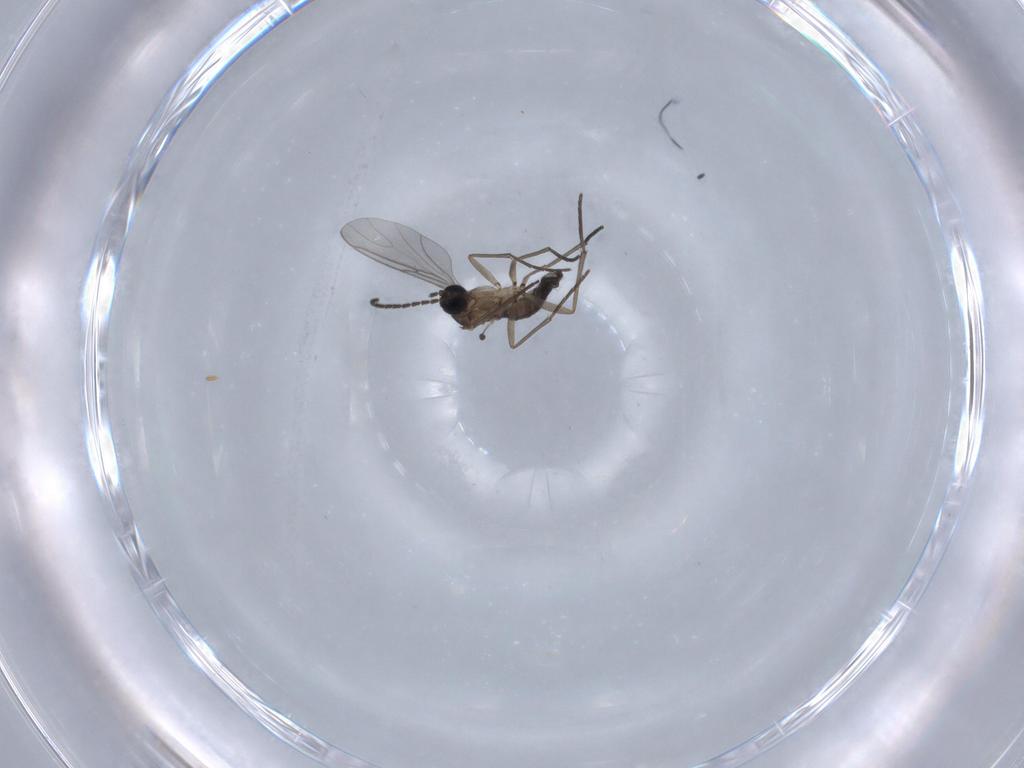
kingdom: Animalia
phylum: Arthropoda
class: Insecta
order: Diptera
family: Sciaridae
